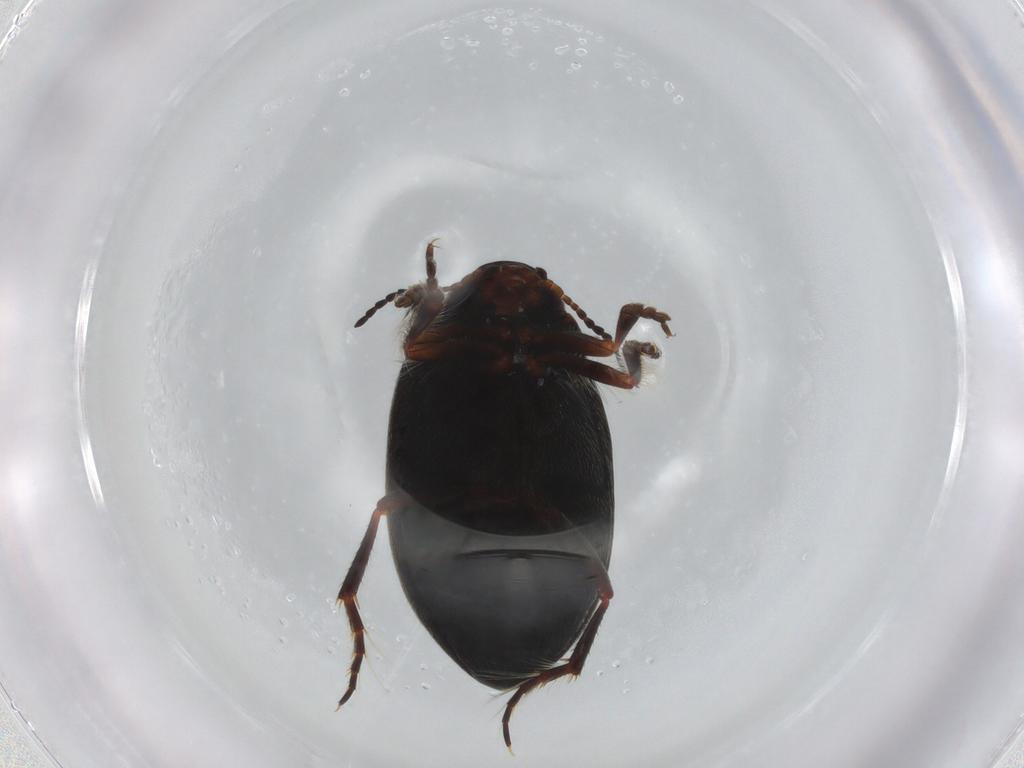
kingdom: Animalia
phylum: Arthropoda
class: Insecta
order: Coleoptera
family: Dytiscidae
